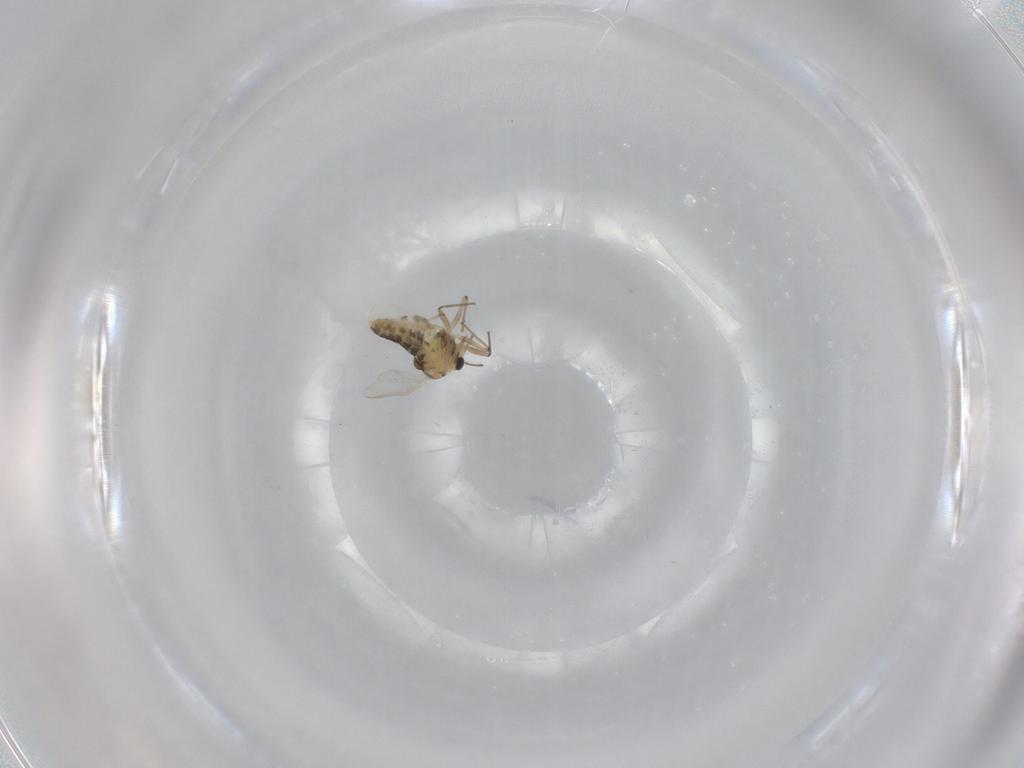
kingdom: Animalia
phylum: Arthropoda
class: Insecta
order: Diptera
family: Chironomidae
